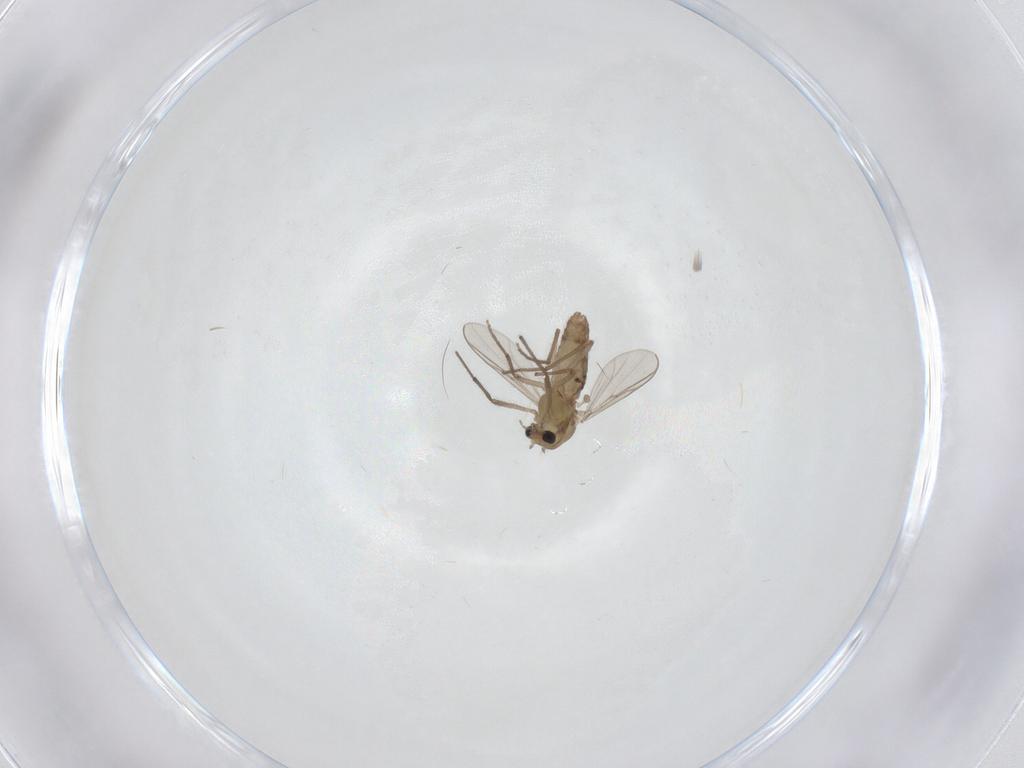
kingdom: Animalia
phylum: Arthropoda
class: Insecta
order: Diptera
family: Chironomidae
